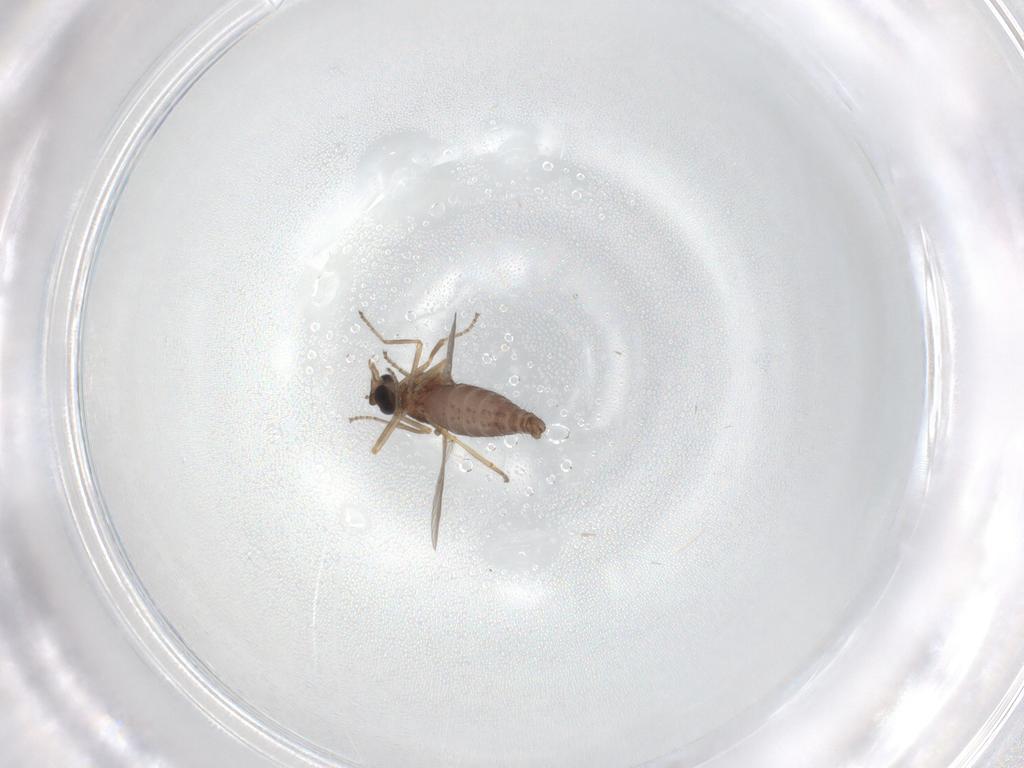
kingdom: Animalia
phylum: Arthropoda
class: Insecta
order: Diptera
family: Ceratopogonidae
